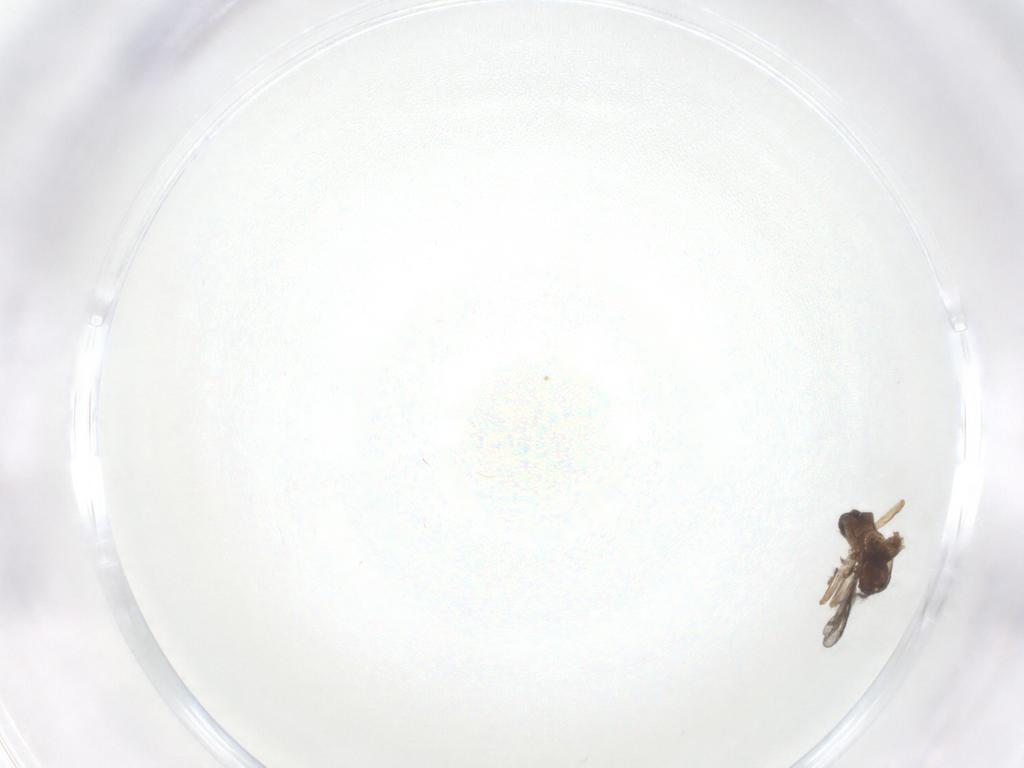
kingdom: Animalia
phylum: Arthropoda
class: Insecta
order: Diptera
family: Ceratopogonidae
